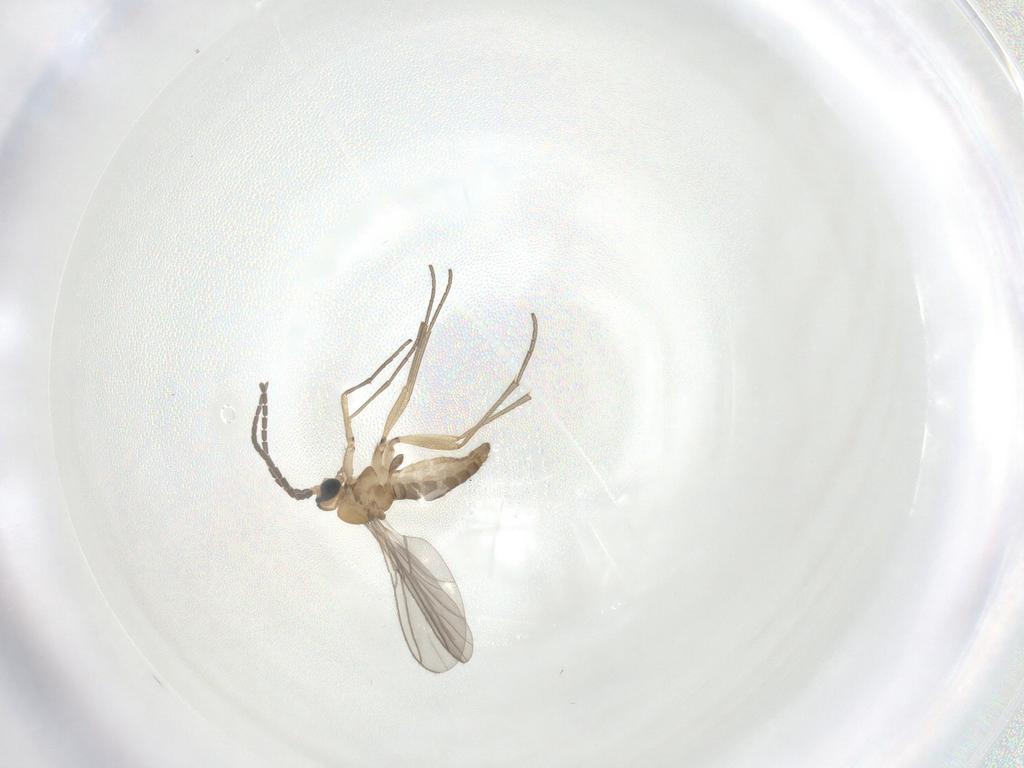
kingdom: Animalia
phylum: Arthropoda
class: Insecta
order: Diptera
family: Sciaridae
